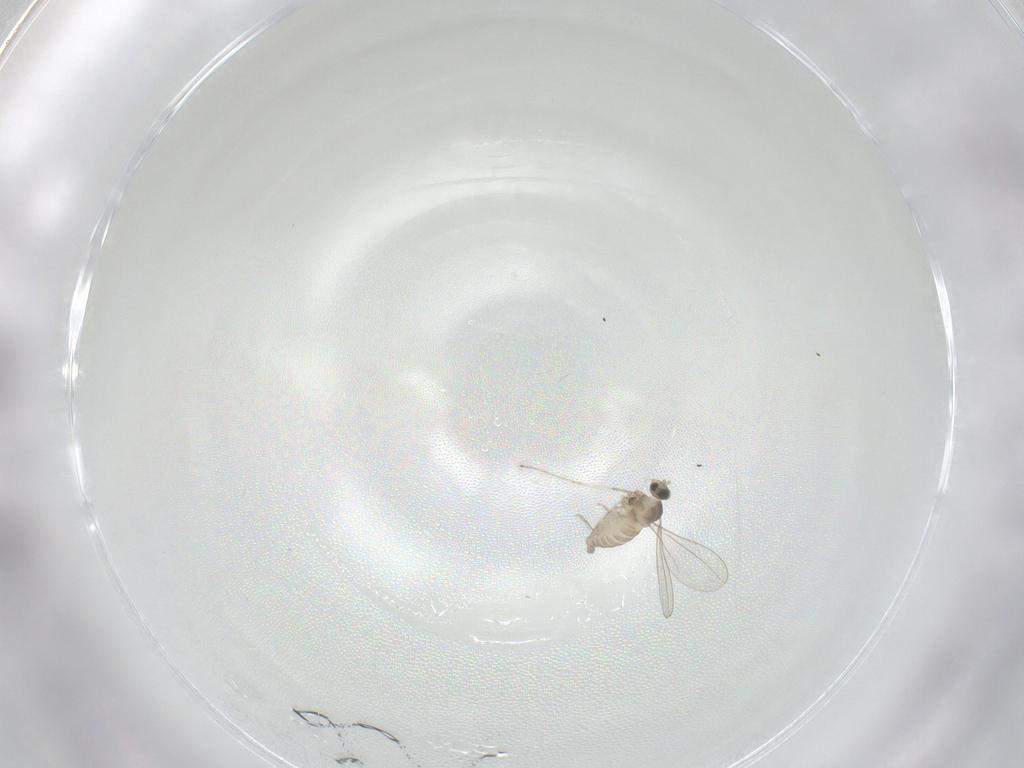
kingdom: Animalia
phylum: Arthropoda
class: Insecta
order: Diptera
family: Cecidomyiidae
